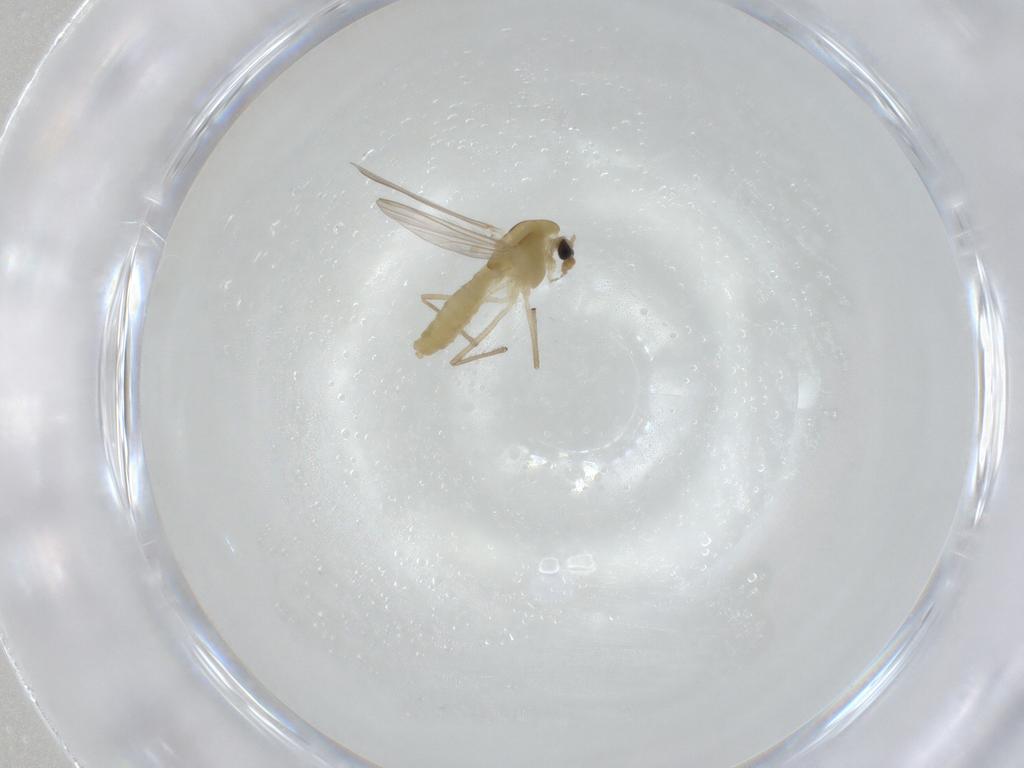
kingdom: Animalia
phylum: Arthropoda
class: Insecta
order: Diptera
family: Chironomidae
